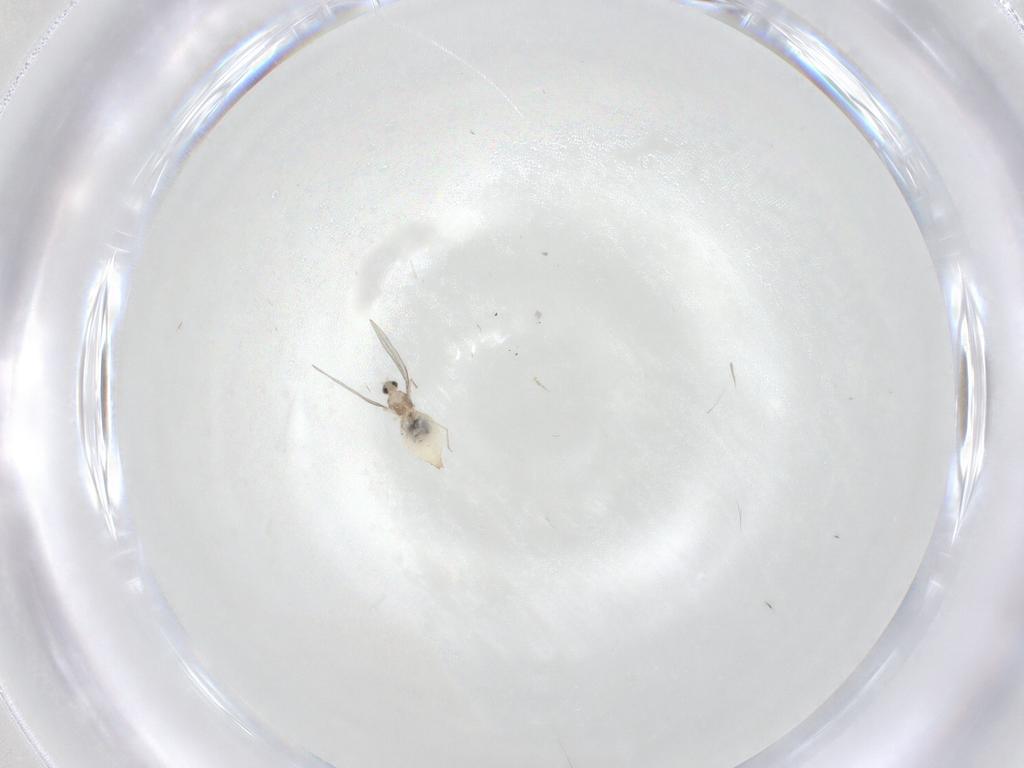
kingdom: Animalia
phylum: Arthropoda
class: Insecta
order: Diptera
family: Cecidomyiidae
